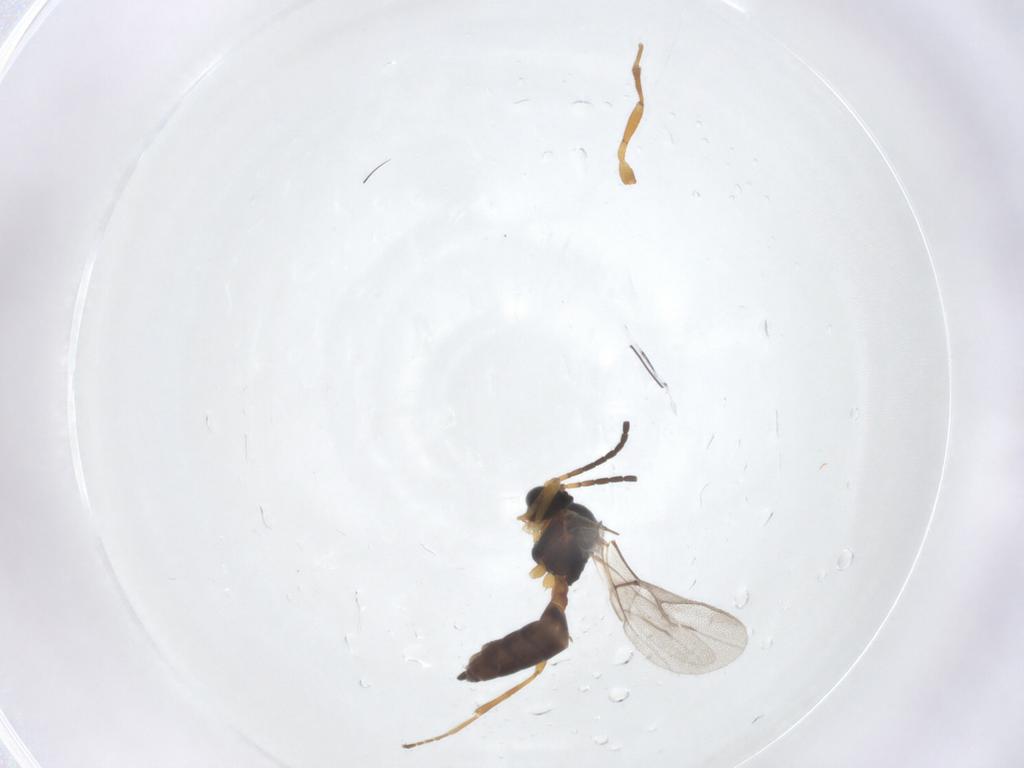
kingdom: Animalia
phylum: Arthropoda
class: Insecta
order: Hymenoptera
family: Braconidae
